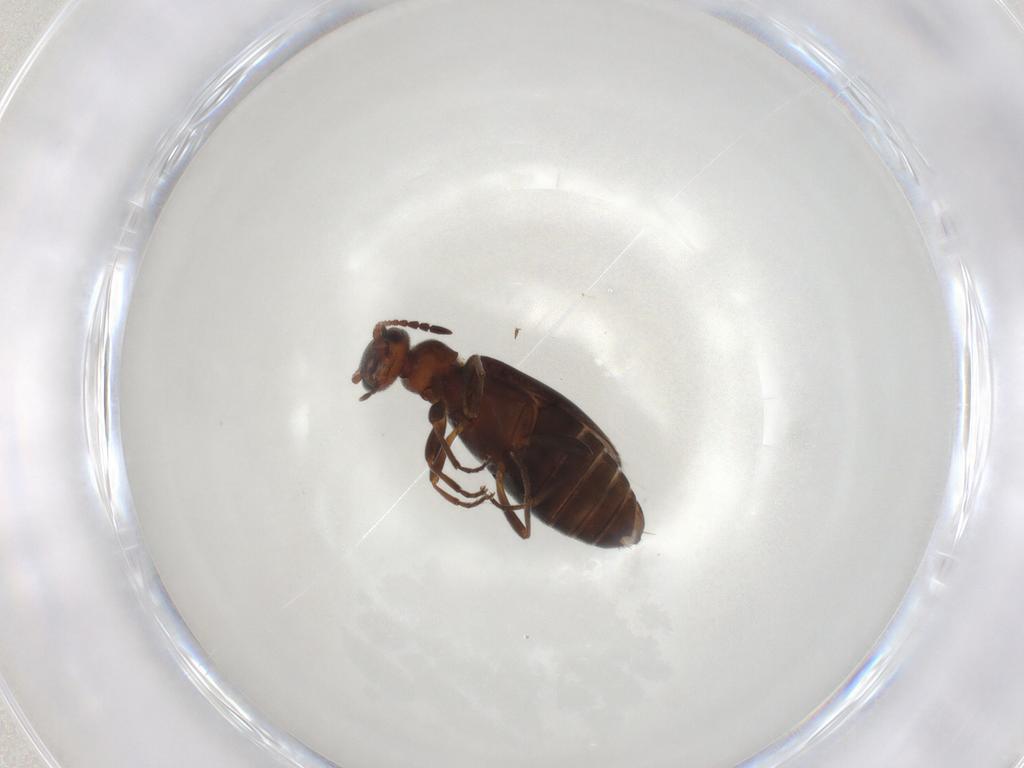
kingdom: Animalia
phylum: Arthropoda
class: Insecta
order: Coleoptera
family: Anthicidae
